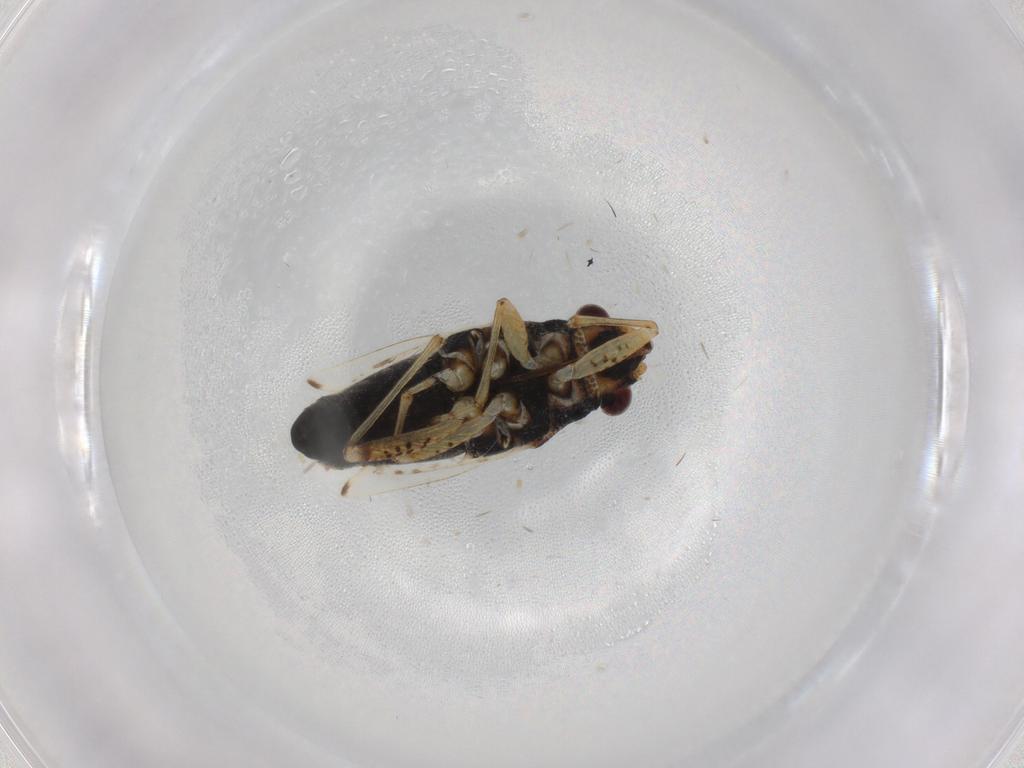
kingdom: Animalia
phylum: Arthropoda
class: Insecta
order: Hemiptera
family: Lygaeidae
